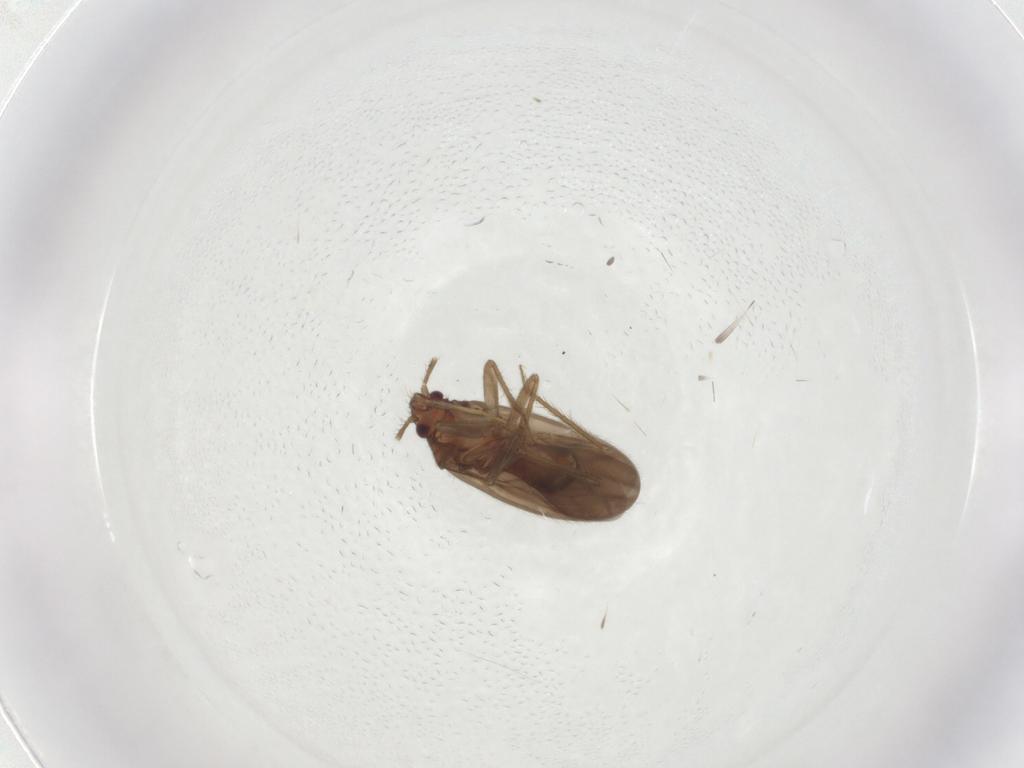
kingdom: Animalia
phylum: Arthropoda
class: Insecta
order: Hemiptera
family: Ceratocombidae
